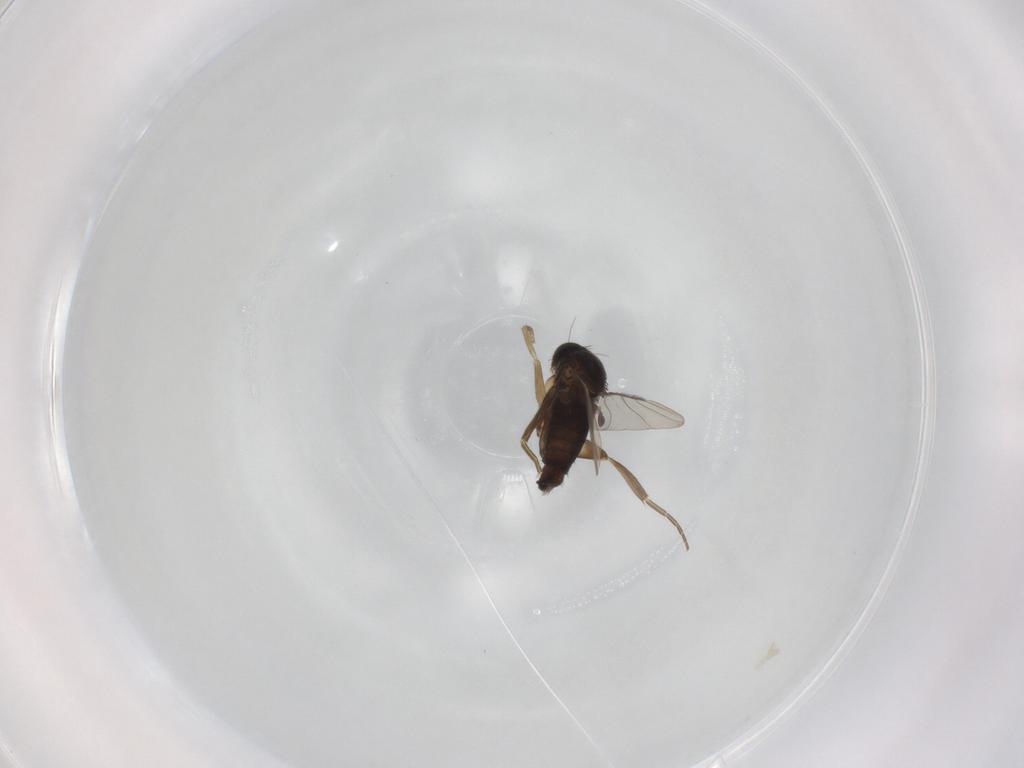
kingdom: Animalia
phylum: Arthropoda
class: Insecta
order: Diptera
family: Phoridae
